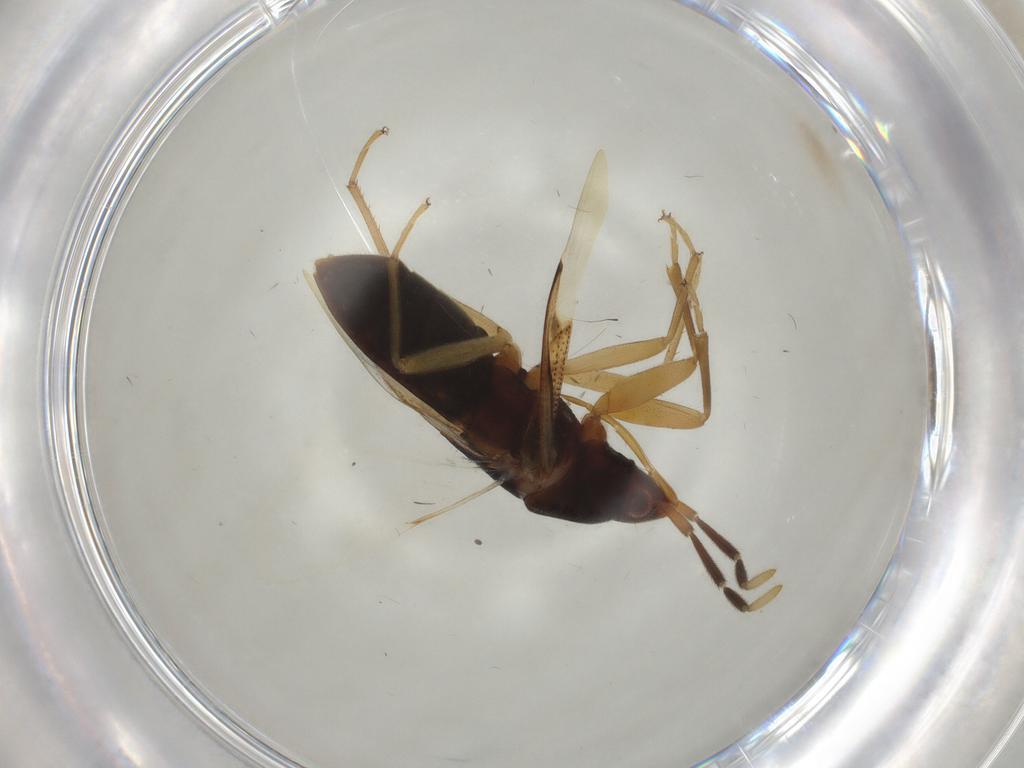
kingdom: Animalia
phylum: Arthropoda
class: Insecta
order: Hemiptera
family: Rhyparochromidae
